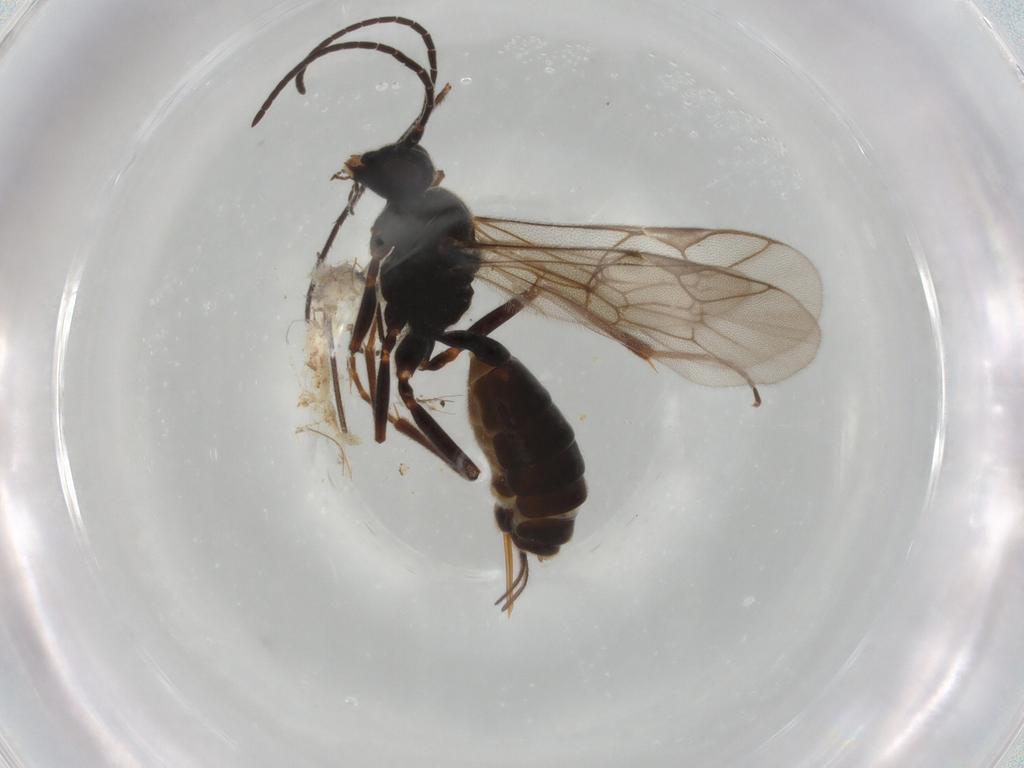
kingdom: Animalia
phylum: Arthropoda
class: Insecta
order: Hymenoptera
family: Ichneumonidae
